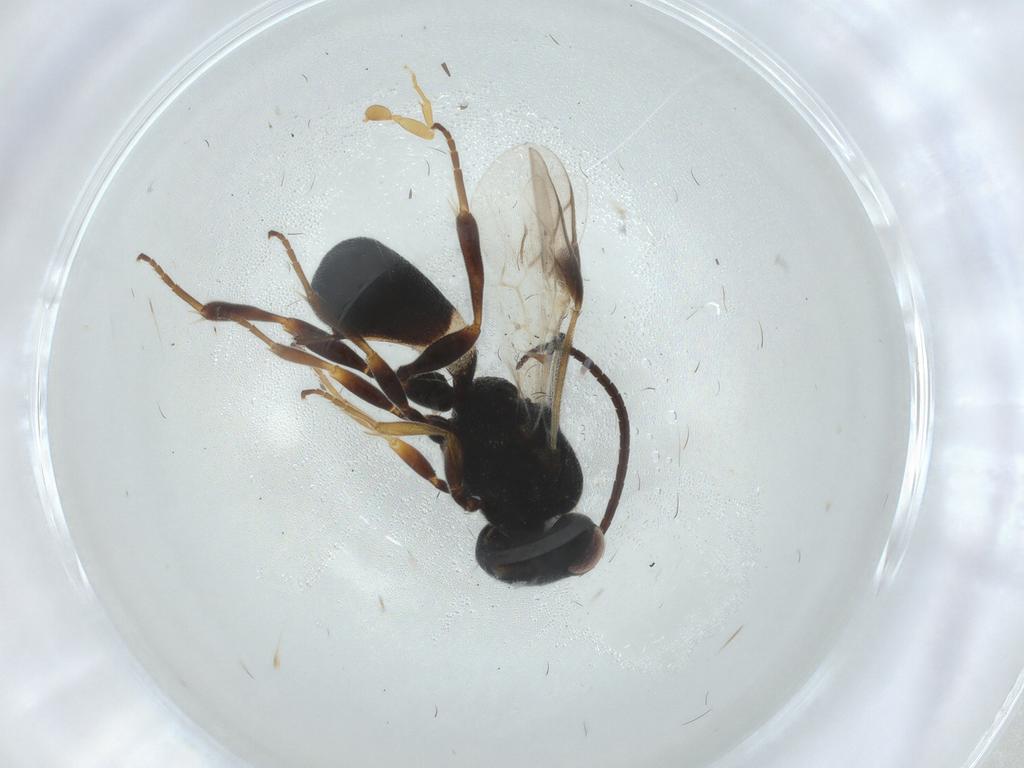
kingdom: Animalia
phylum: Arthropoda
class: Insecta
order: Hymenoptera
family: Braconidae
